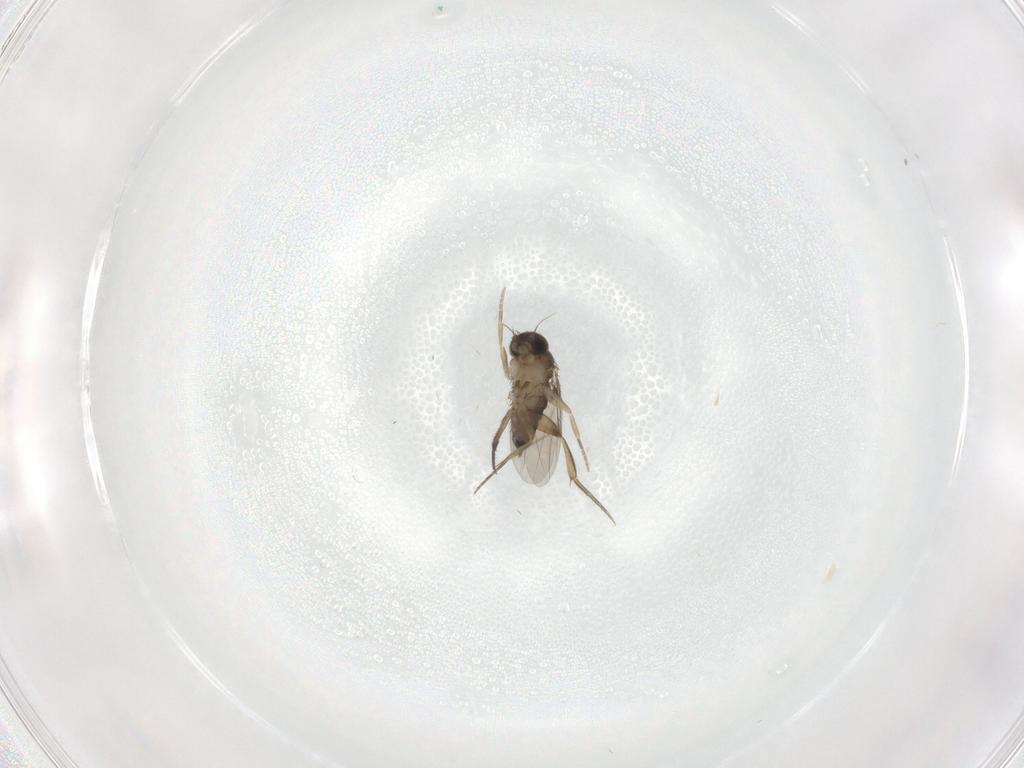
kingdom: Animalia
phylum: Arthropoda
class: Insecta
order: Diptera
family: Phoridae
